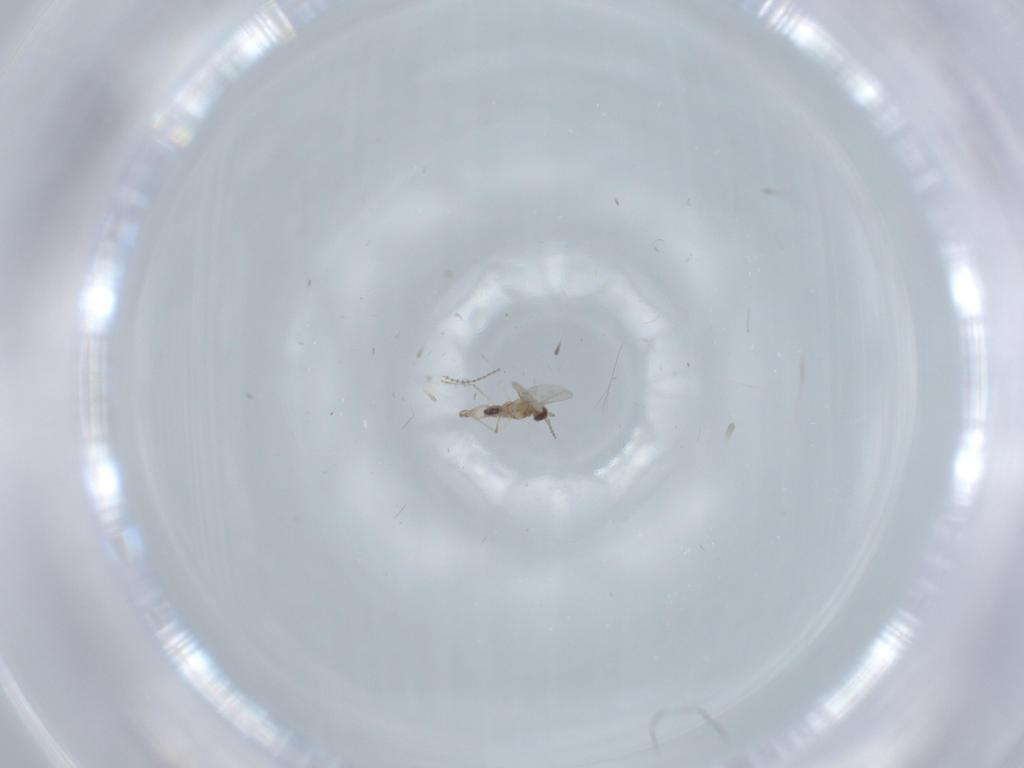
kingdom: Animalia
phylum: Arthropoda
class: Insecta
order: Diptera
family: Cecidomyiidae
